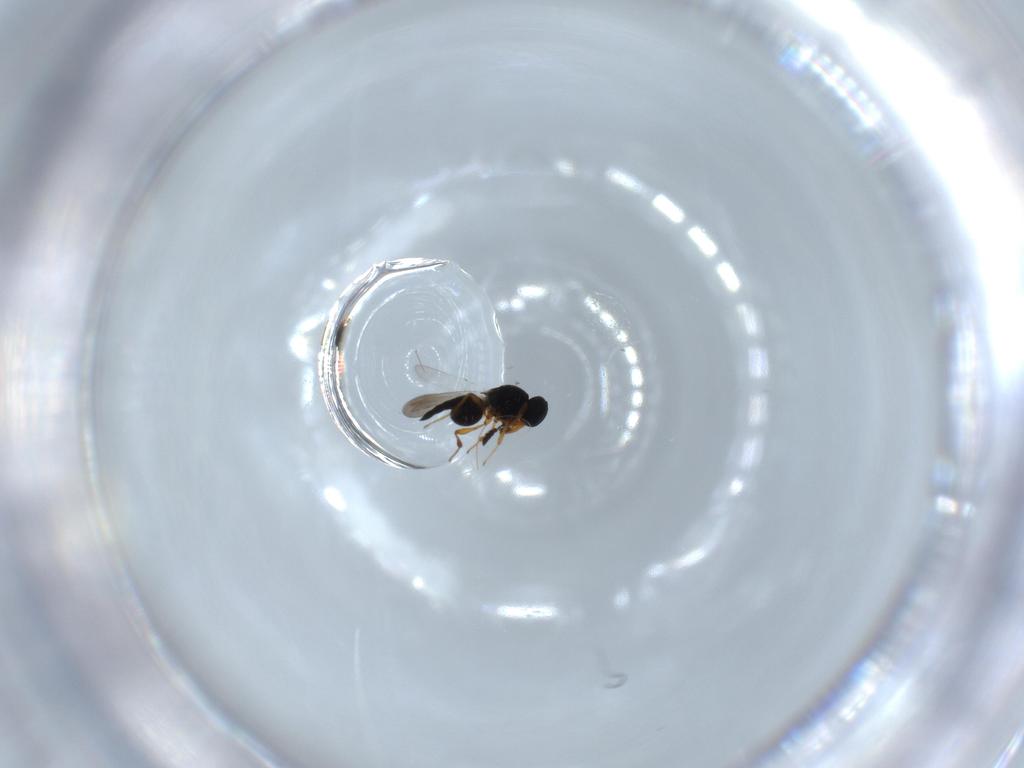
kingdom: Animalia
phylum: Arthropoda
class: Insecta
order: Hymenoptera
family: Platygastridae
